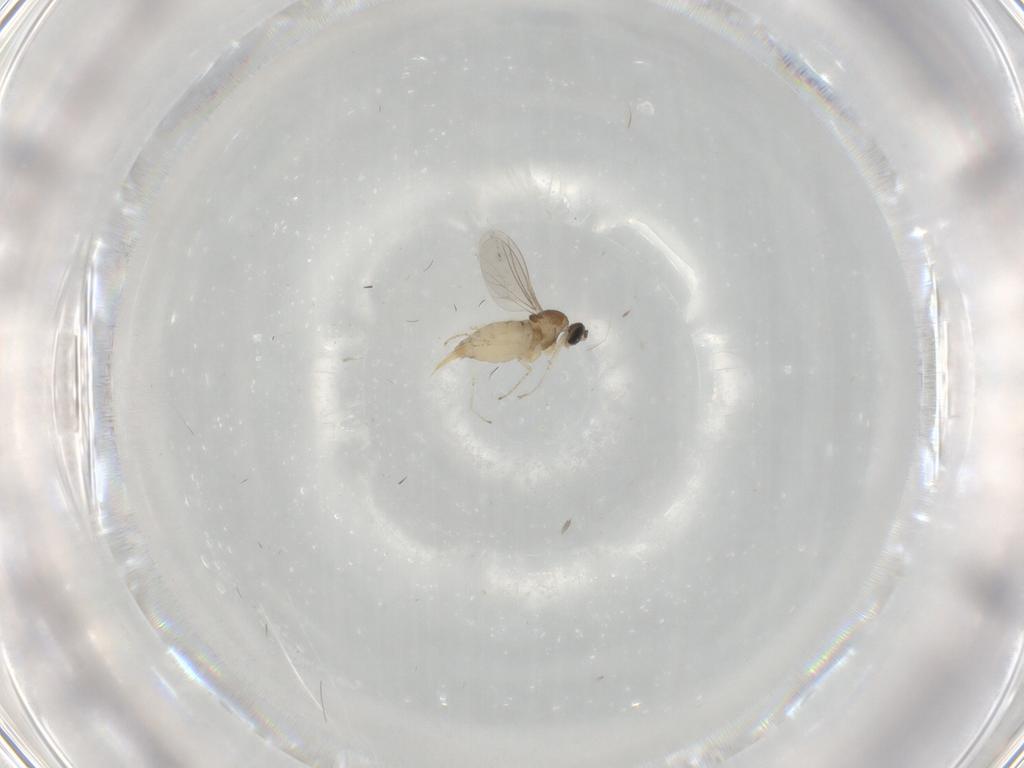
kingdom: Animalia
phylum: Arthropoda
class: Insecta
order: Diptera
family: Cecidomyiidae
